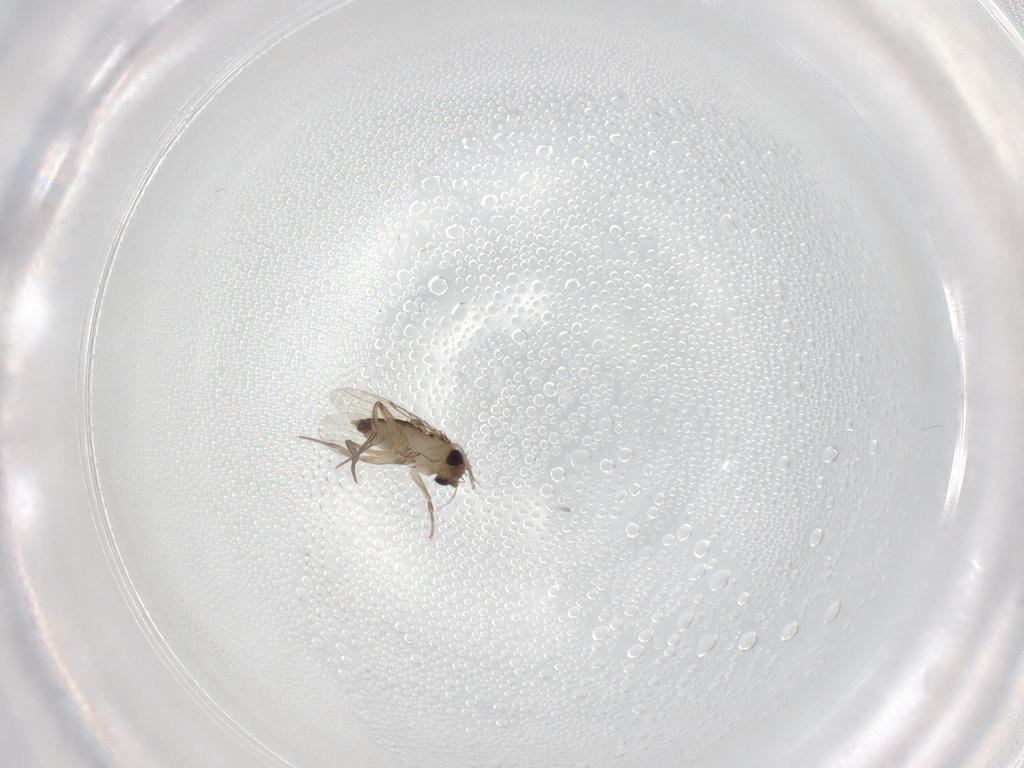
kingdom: Animalia
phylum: Arthropoda
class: Insecta
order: Diptera
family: Phoridae
